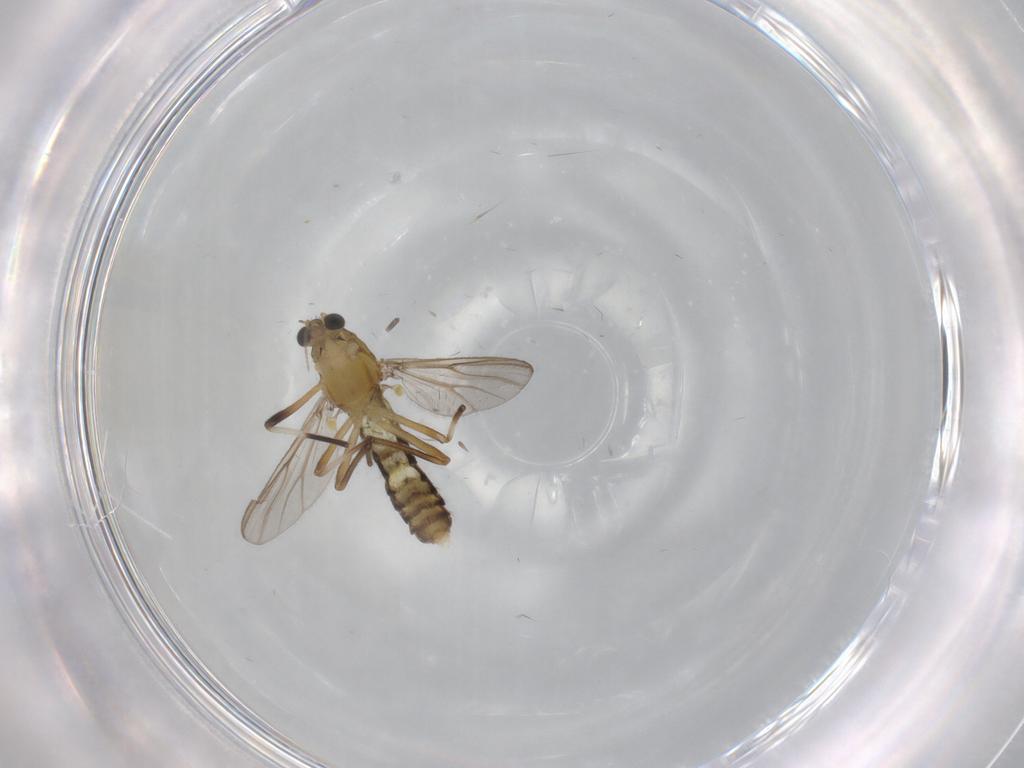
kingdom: Animalia
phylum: Arthropoda
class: Insecta
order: Diptera
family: Chironomidae
